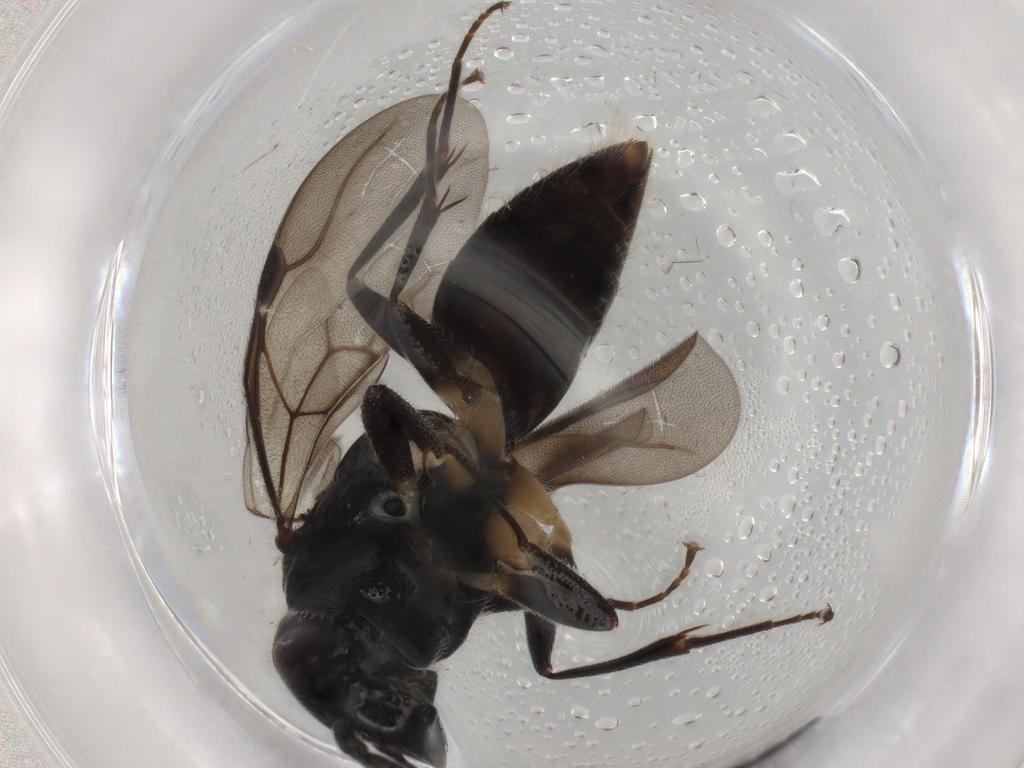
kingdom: Animalia
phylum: Arthropoda
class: Insecta
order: Hymenoptera
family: Bethylidae
